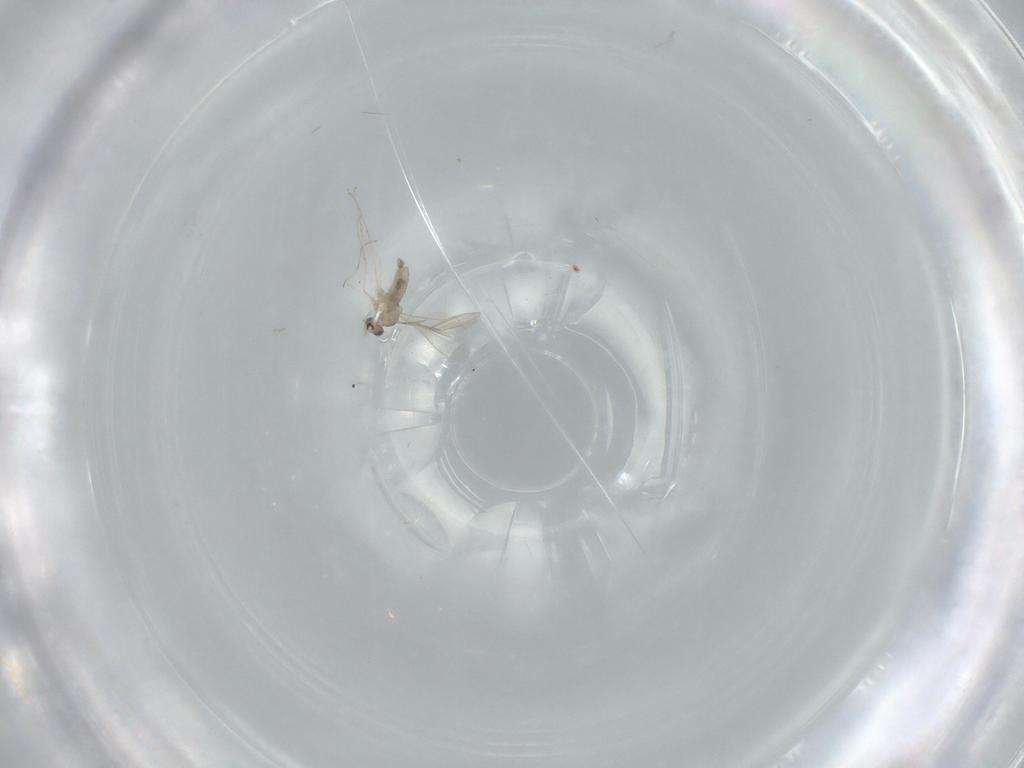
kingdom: Animalia
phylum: Arthropoda
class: Insecta
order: Diptera
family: Cecidomyiidae
